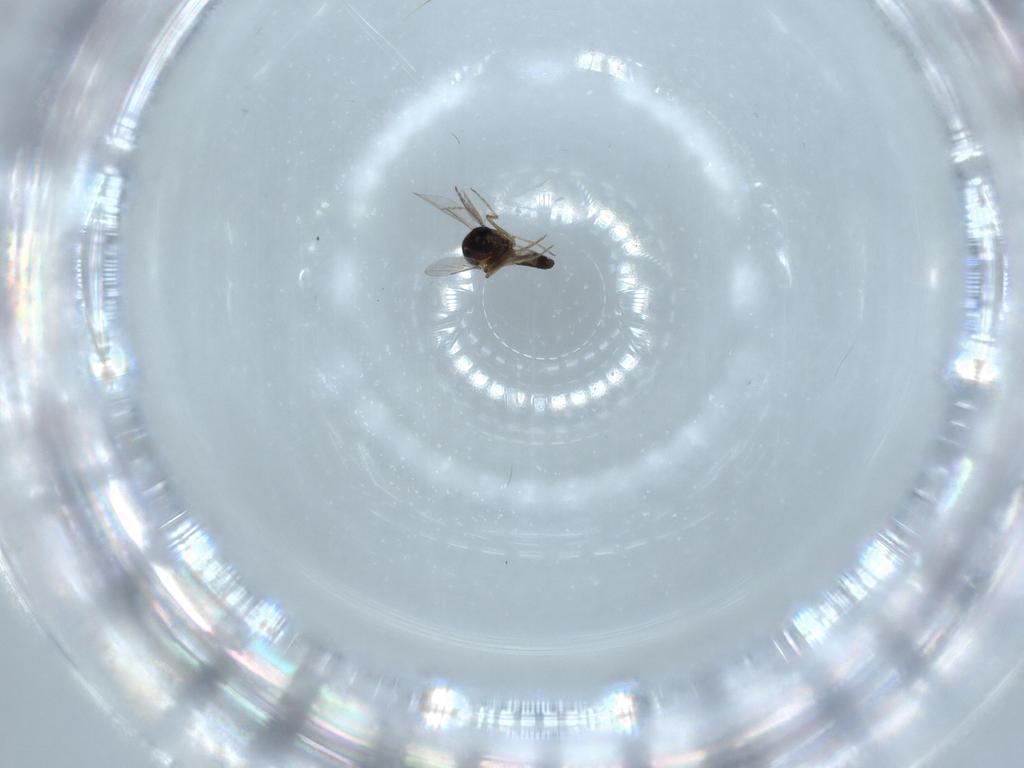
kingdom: Animalia
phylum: Arthropoda
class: Insecta
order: Diptera
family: Ceratopogonidae
